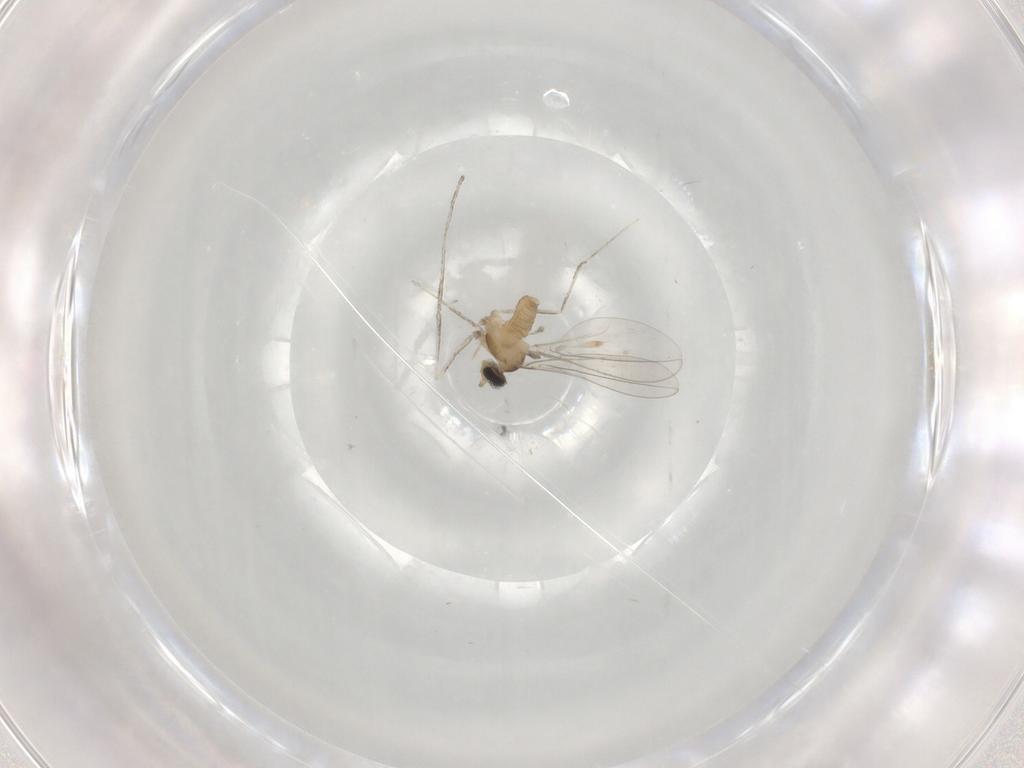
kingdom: Animalia
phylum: Arthropoda
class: Insecta
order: Diptera
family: Cecidomyiidae
